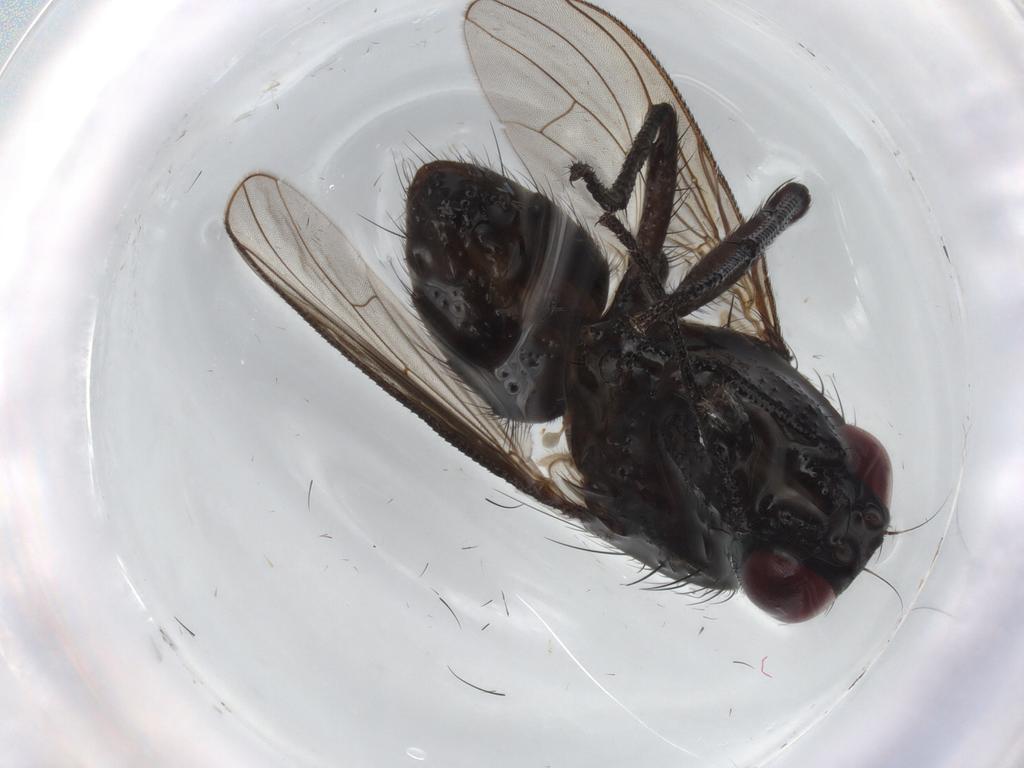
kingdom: Animalia
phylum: Arthropoda
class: Insecta
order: Diptera
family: Muscidae
